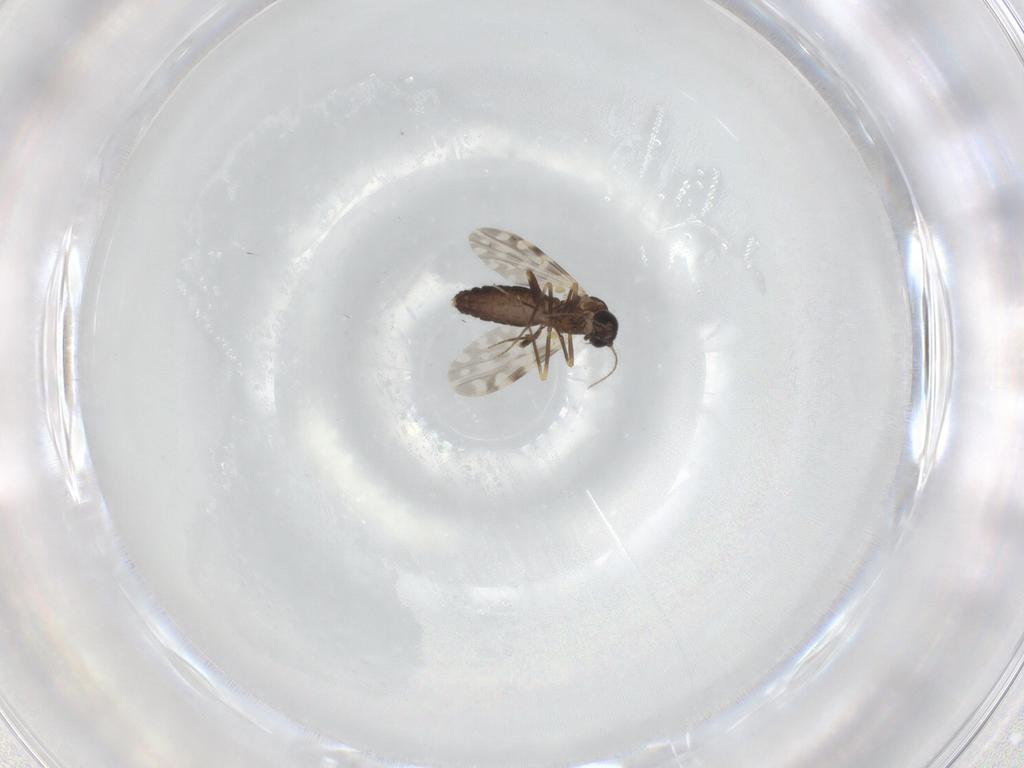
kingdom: Animalia
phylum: Arthropoda
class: Insecta
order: Diptera
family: Ceratopogonidae
